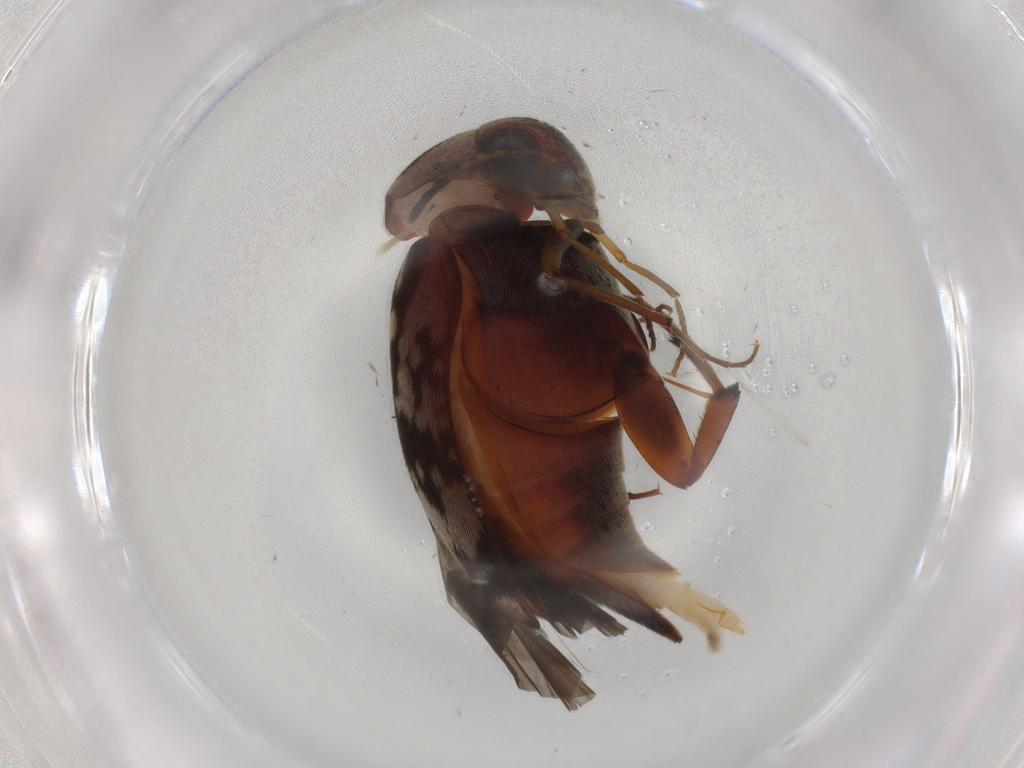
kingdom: Animalia
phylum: Arthropoda
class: Insecta
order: Coleoptera
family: Mordellidae
